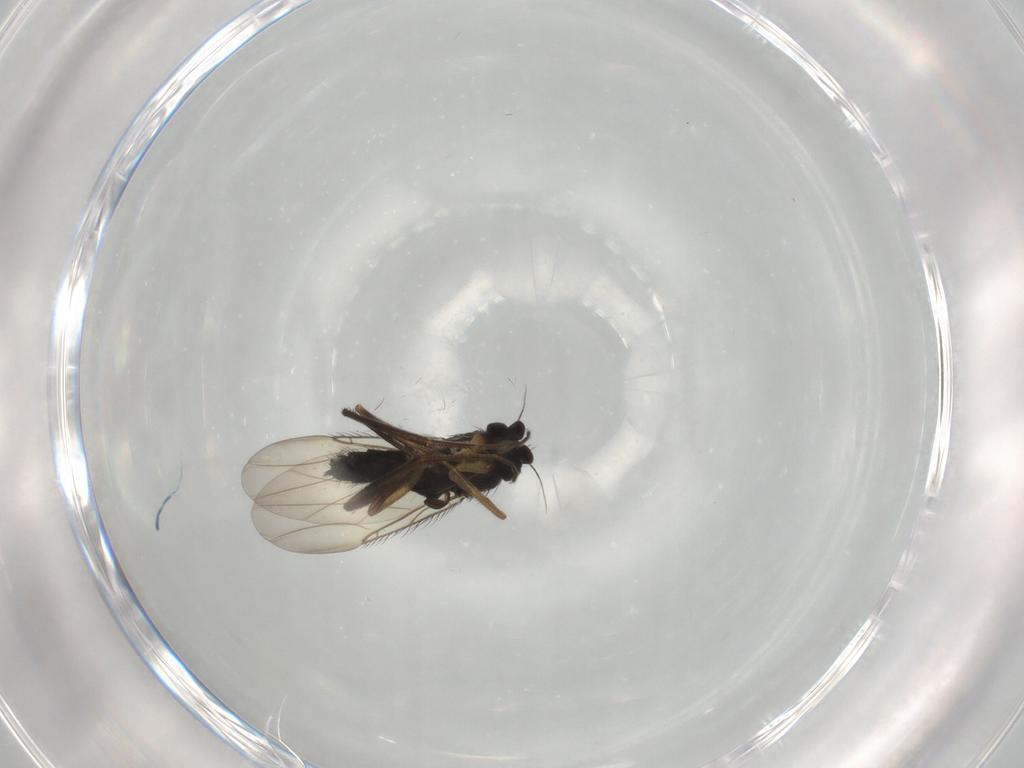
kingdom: Animalia
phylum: Arthropoda
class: Insecta
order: Diptera
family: Phoridae
